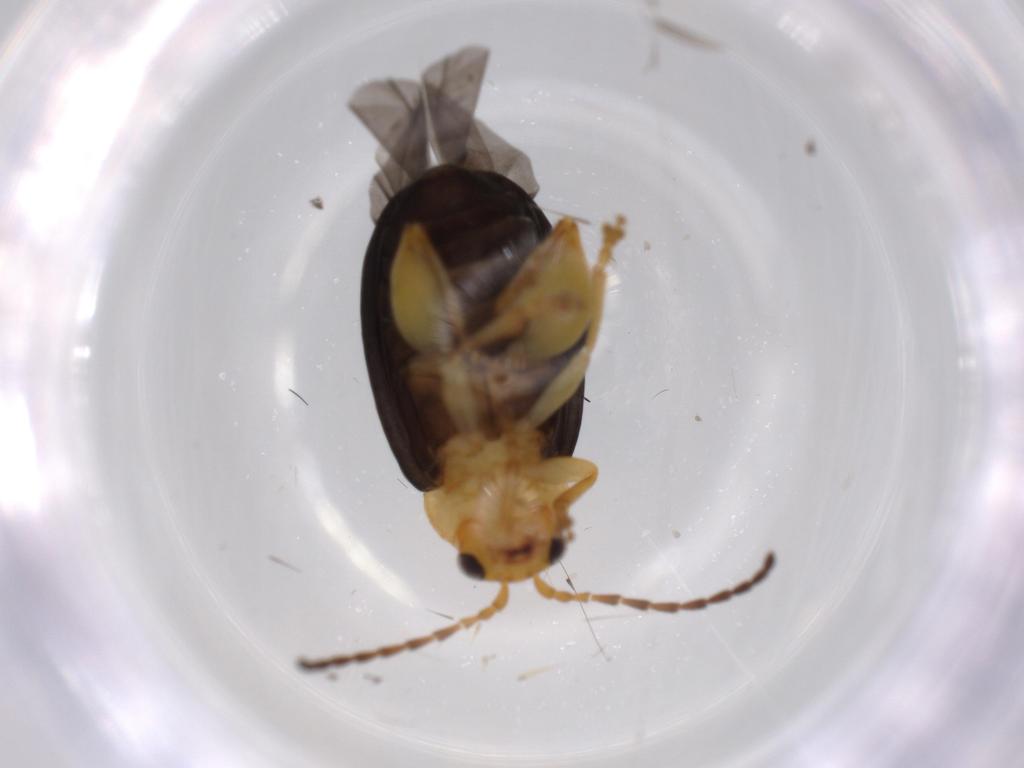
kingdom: Animalia
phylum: Arthropoda
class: Insecta
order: Coleoptera
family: Chrysomelidae
